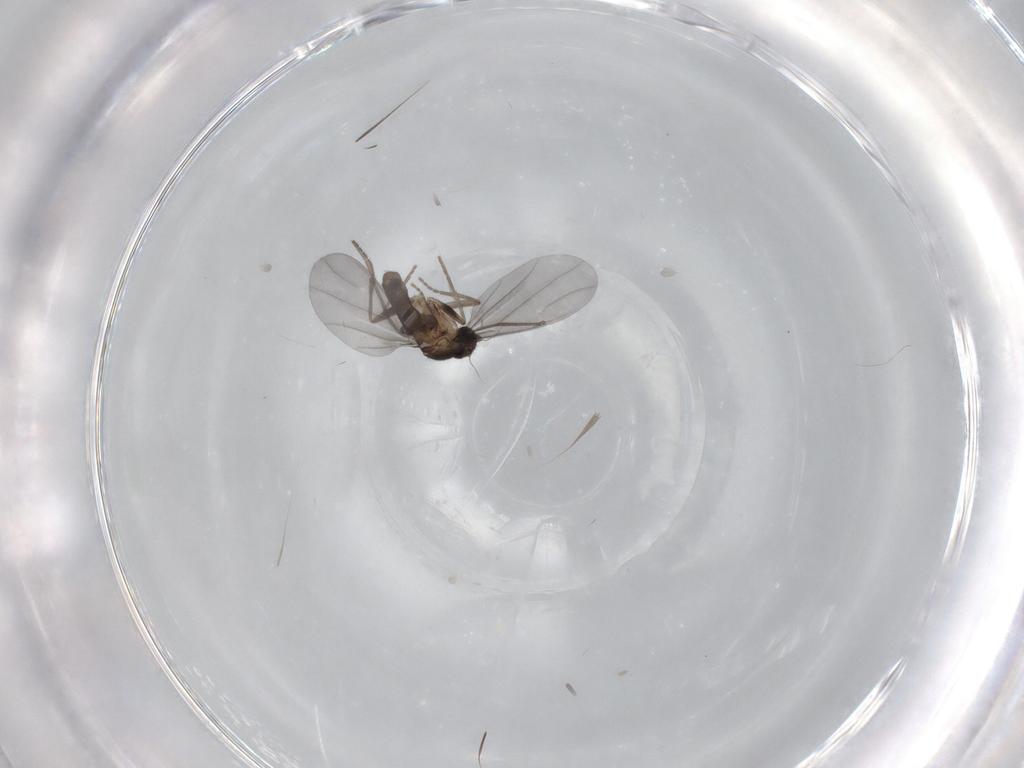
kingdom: Animalia
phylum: Arthropoda
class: Insecta
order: Diptera
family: Phoridae
